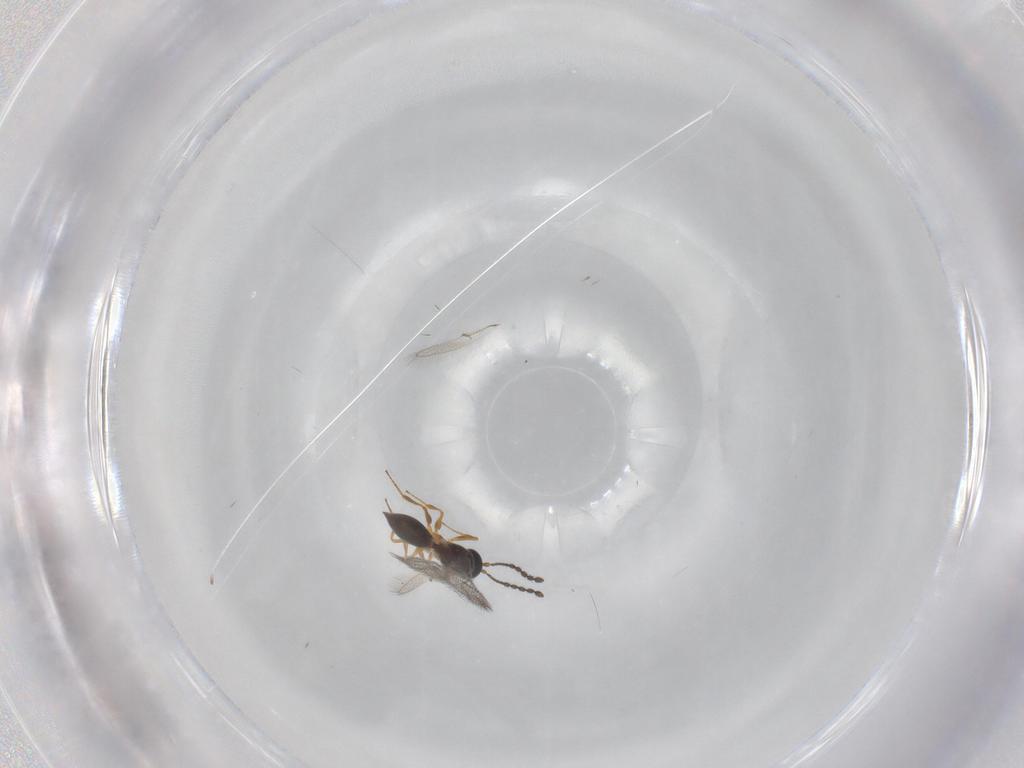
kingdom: Animalia
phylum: Arthropoda
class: Insecta
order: Hymenoptera
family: Figitidae
